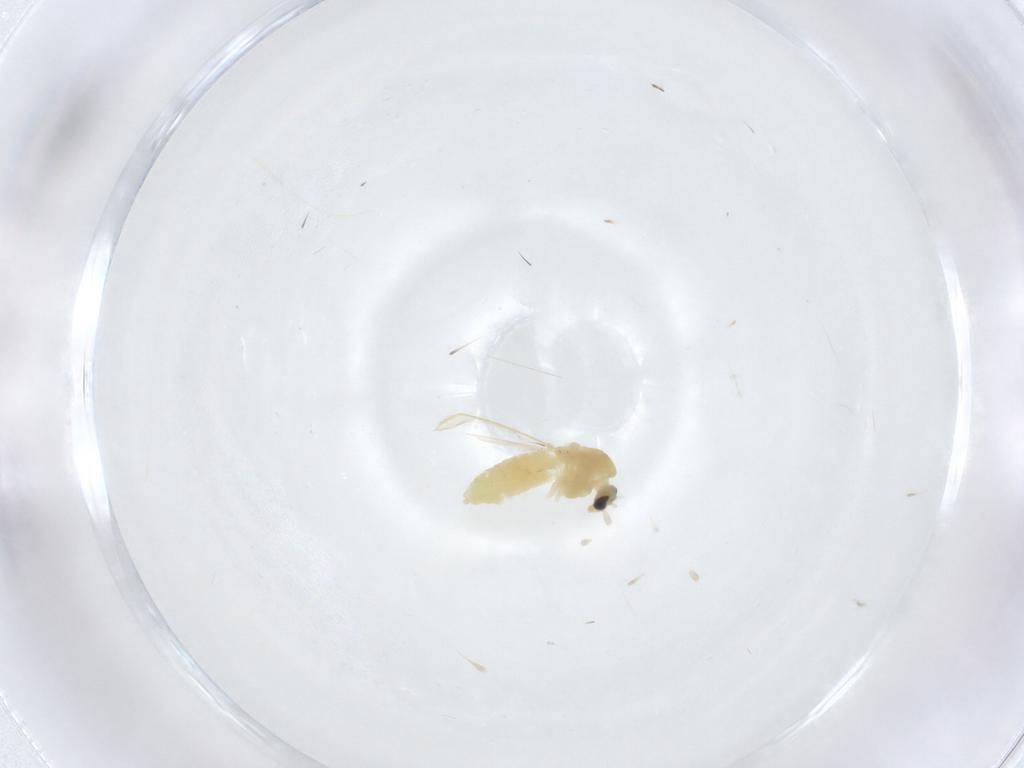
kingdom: Animalia
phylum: Arthropoda
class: Insecta
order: Diptera
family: Chironomidae
